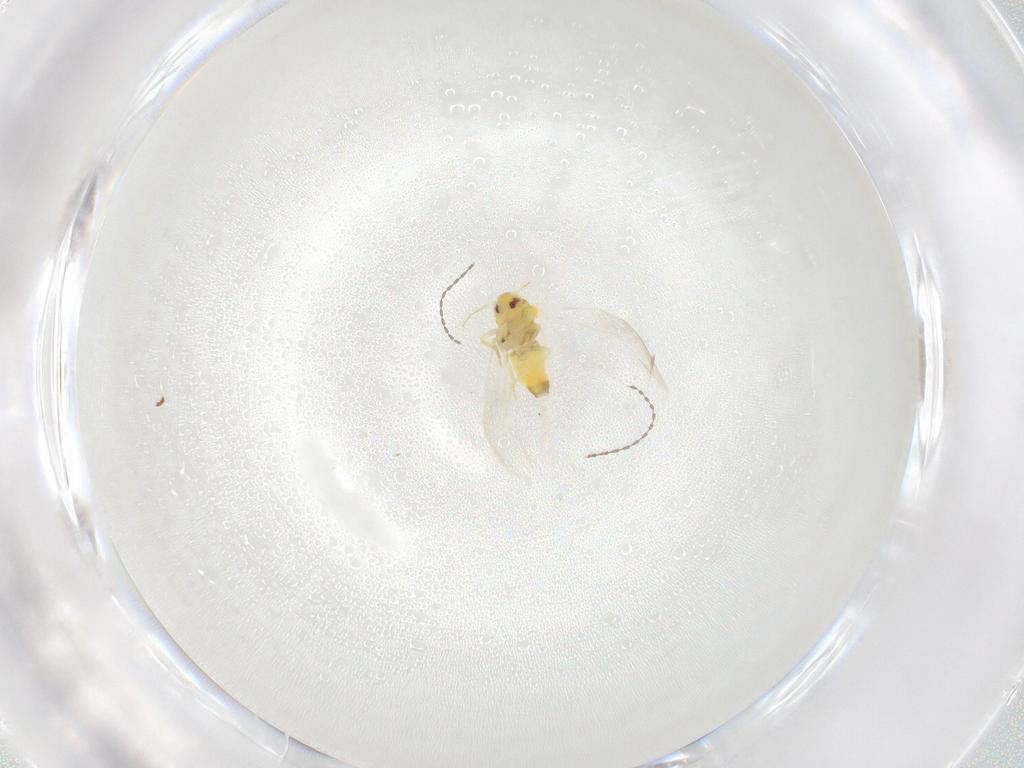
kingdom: Animalia
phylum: Arthropoda
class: Insecta
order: Hemiptera
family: Aleyrodidae
